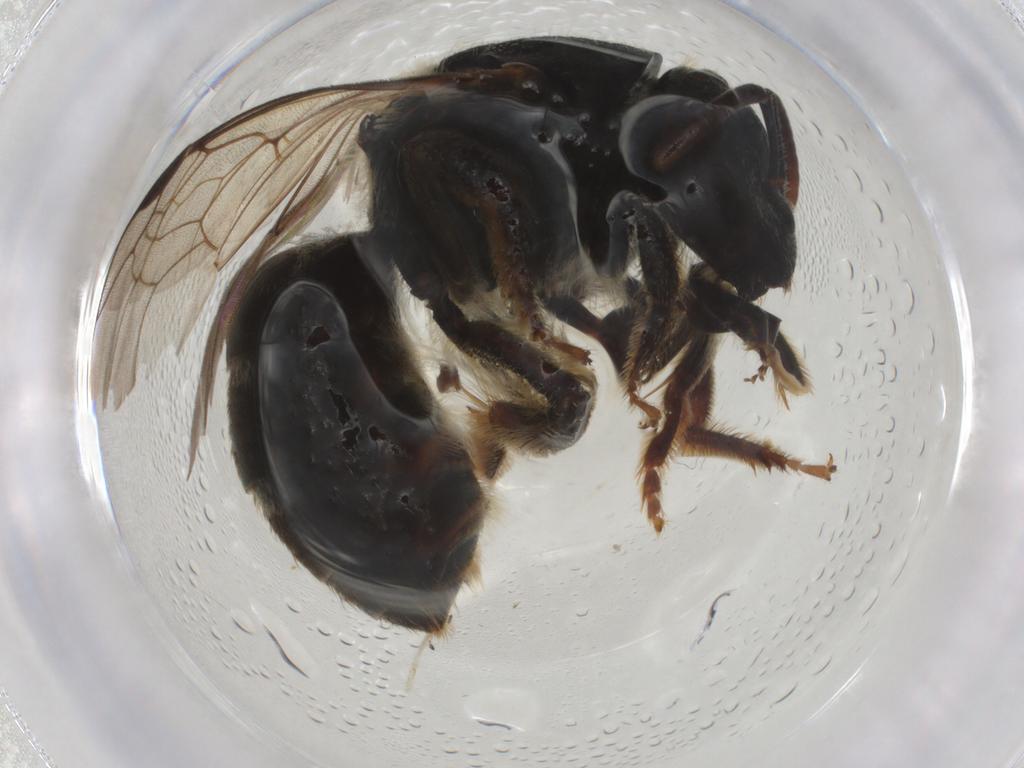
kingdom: Animalia
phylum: Arthropoda
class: Insecta
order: Hymenoptera
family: Halictidae
